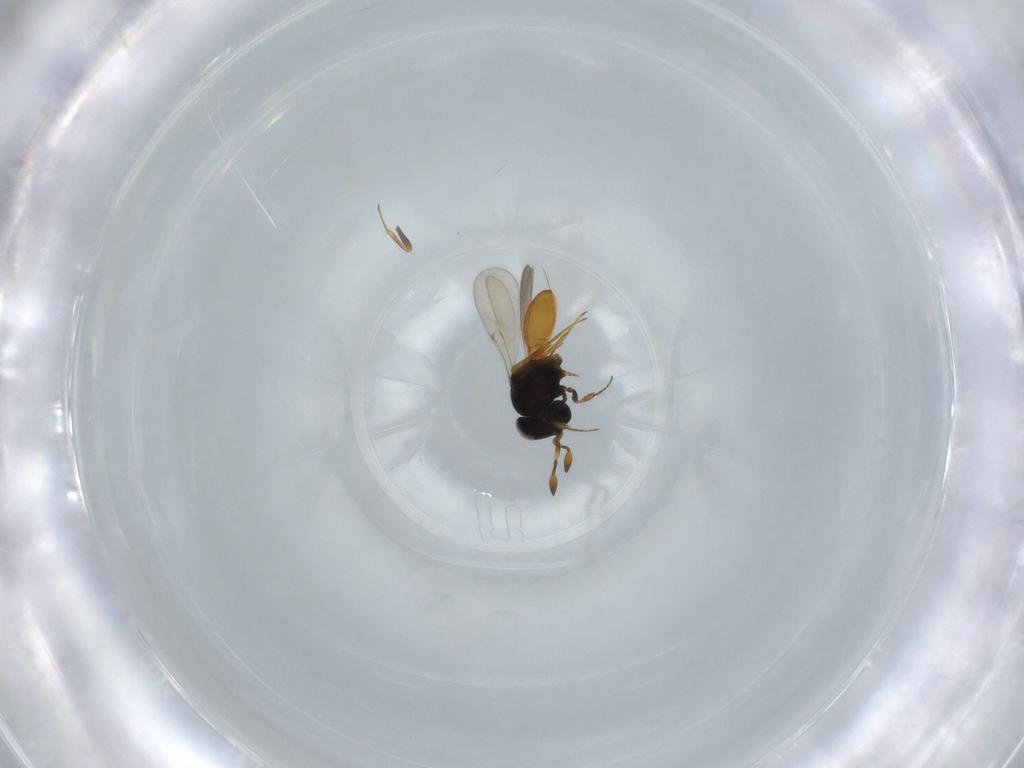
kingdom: Animalia
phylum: Arthropoda
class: Insecta
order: Hymenoptera
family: Scelionidae
